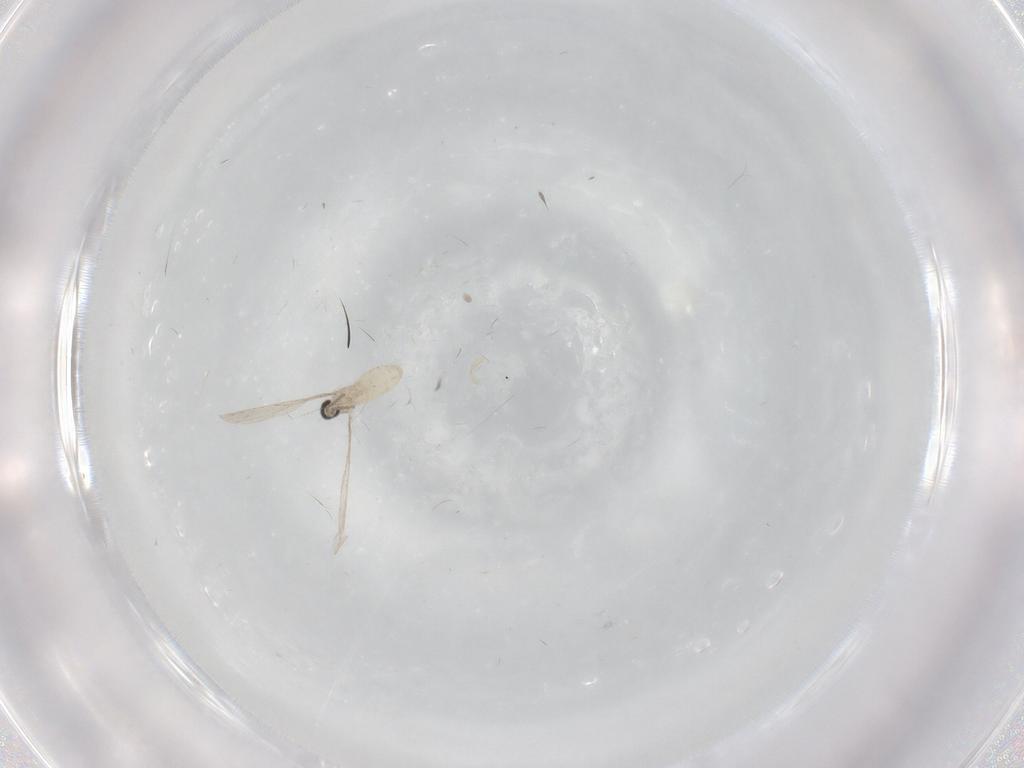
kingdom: Animalia
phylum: Arthropoda
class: Insecta
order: Diptera
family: Cecidomyiidae
